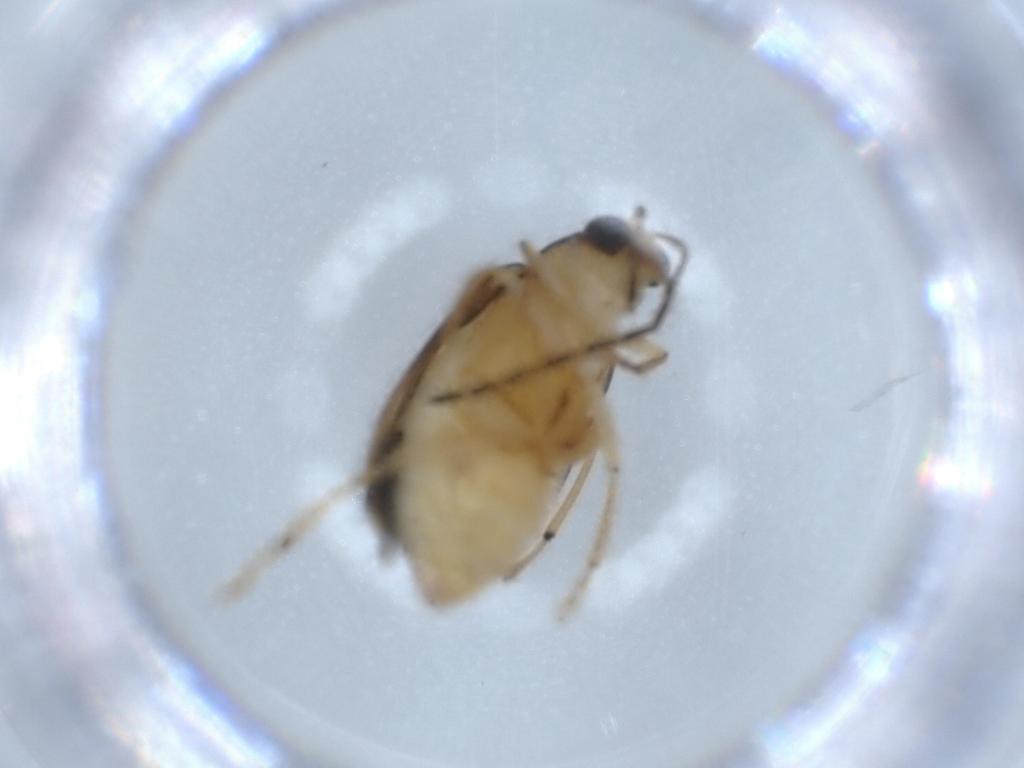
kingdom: Animalia
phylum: Arthropoda
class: Insecta
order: Coleoptera
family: Chrysomelidae
